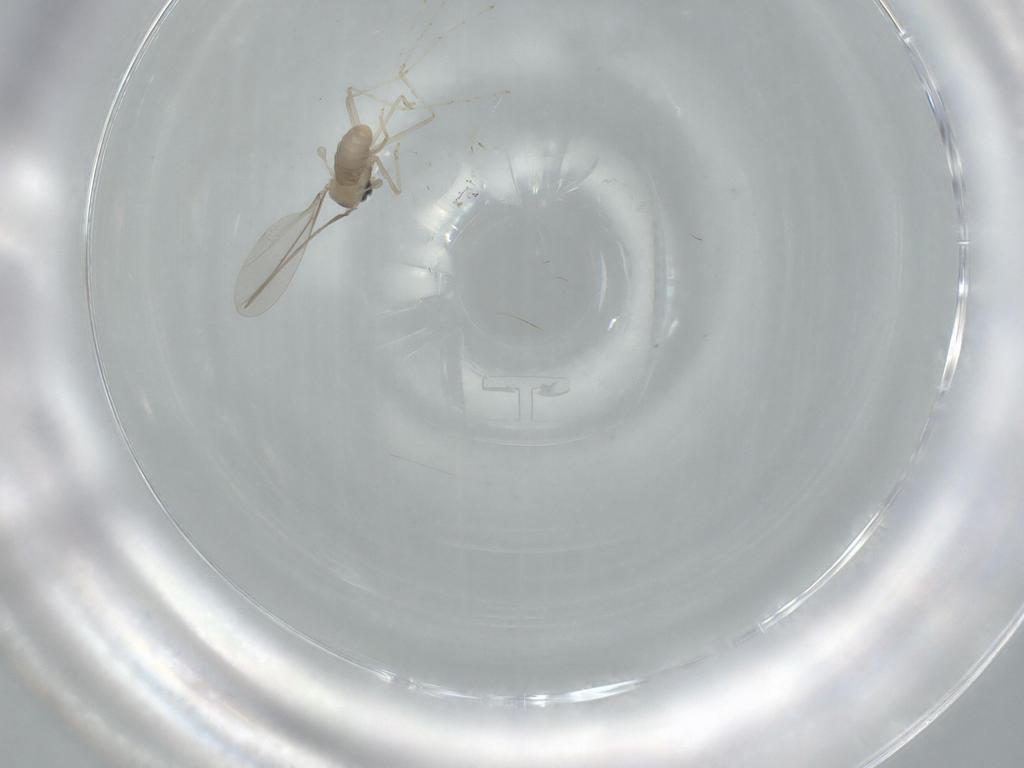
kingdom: Animalia
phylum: Arthropoda
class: Insecta
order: Diptera
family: Cecidomyiidae
